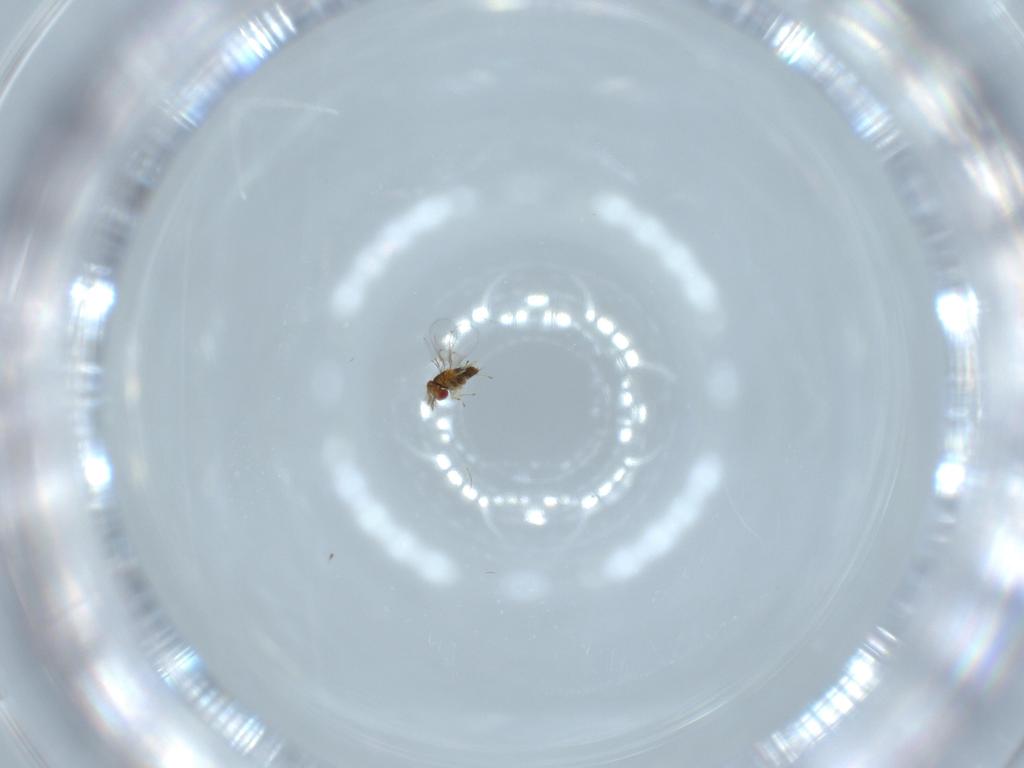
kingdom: Animalia
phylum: Arthropoda
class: Insecta
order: Hymenoptera
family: Trichogrammatidae
